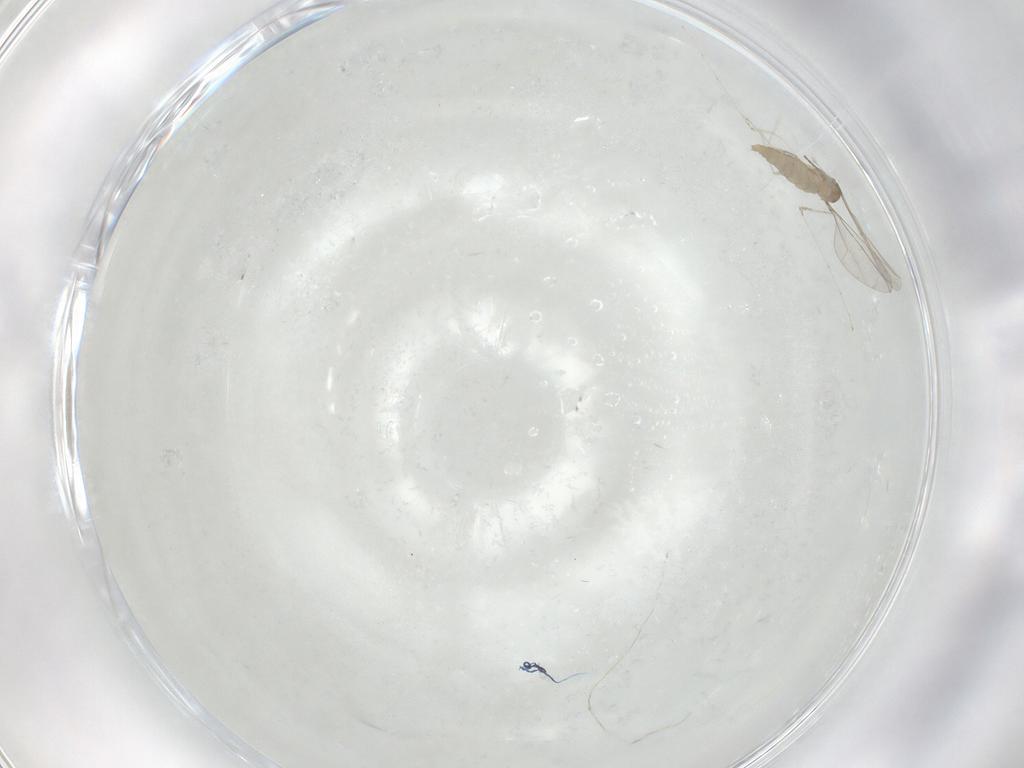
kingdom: Animalia
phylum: Arthropoda
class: Insecta
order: Diptera
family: Cecidomyiidae
